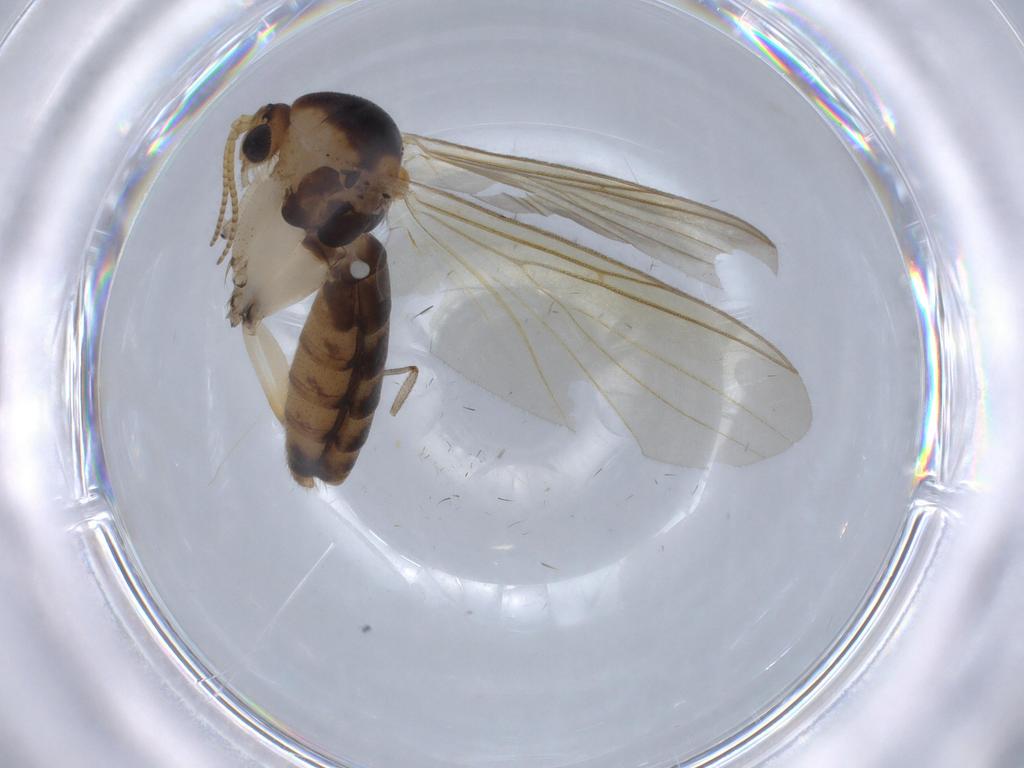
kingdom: Animalia
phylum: Arthropoda
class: Insecta
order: Diptera
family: Mycetophilidae
